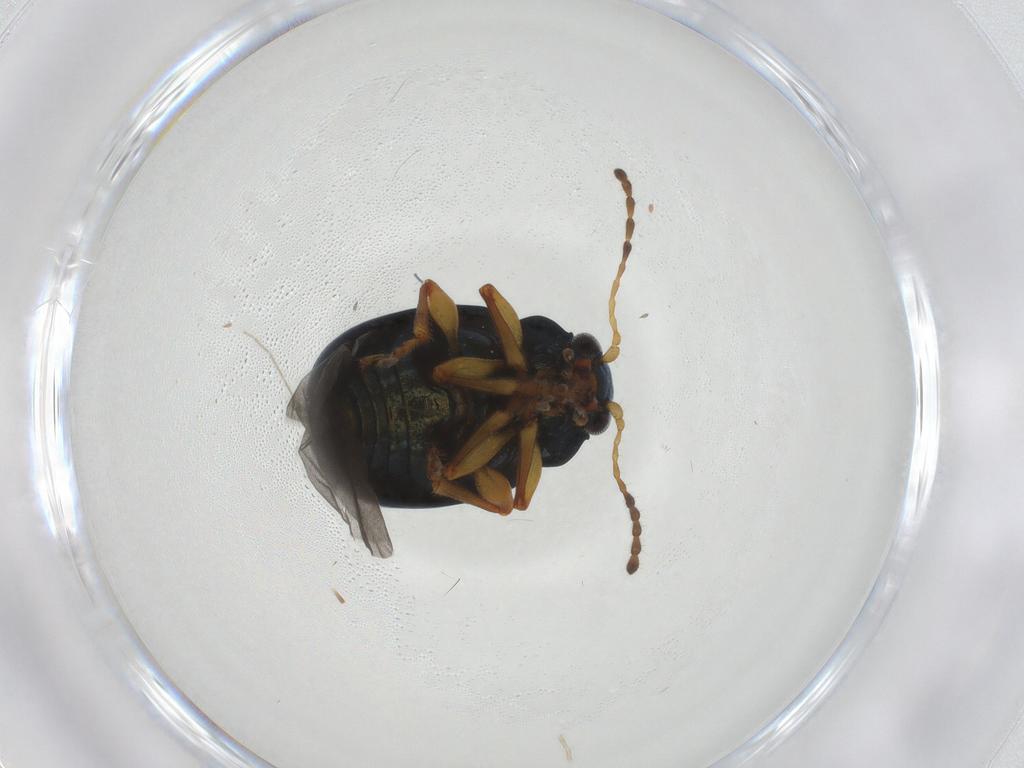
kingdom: Animalia
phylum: Arthropoda
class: Insecta
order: Coleoptera
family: Chrysomelidae
